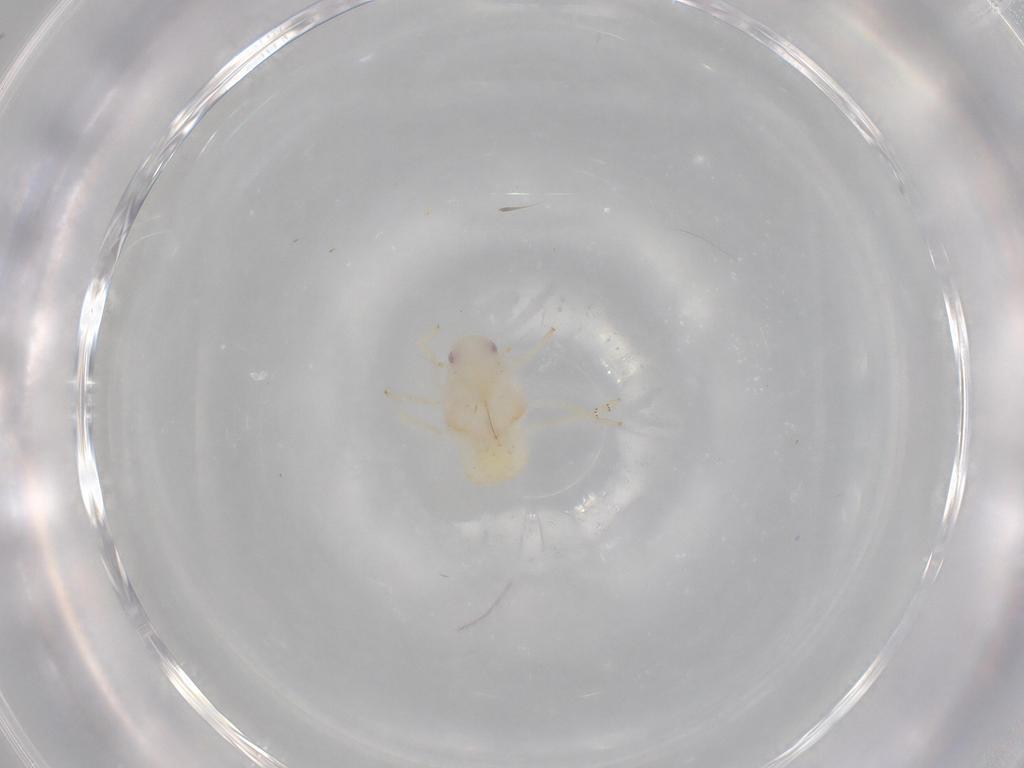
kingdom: Animalia
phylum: Arthropoda
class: Insecta
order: Hemiptera
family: Flatidae
